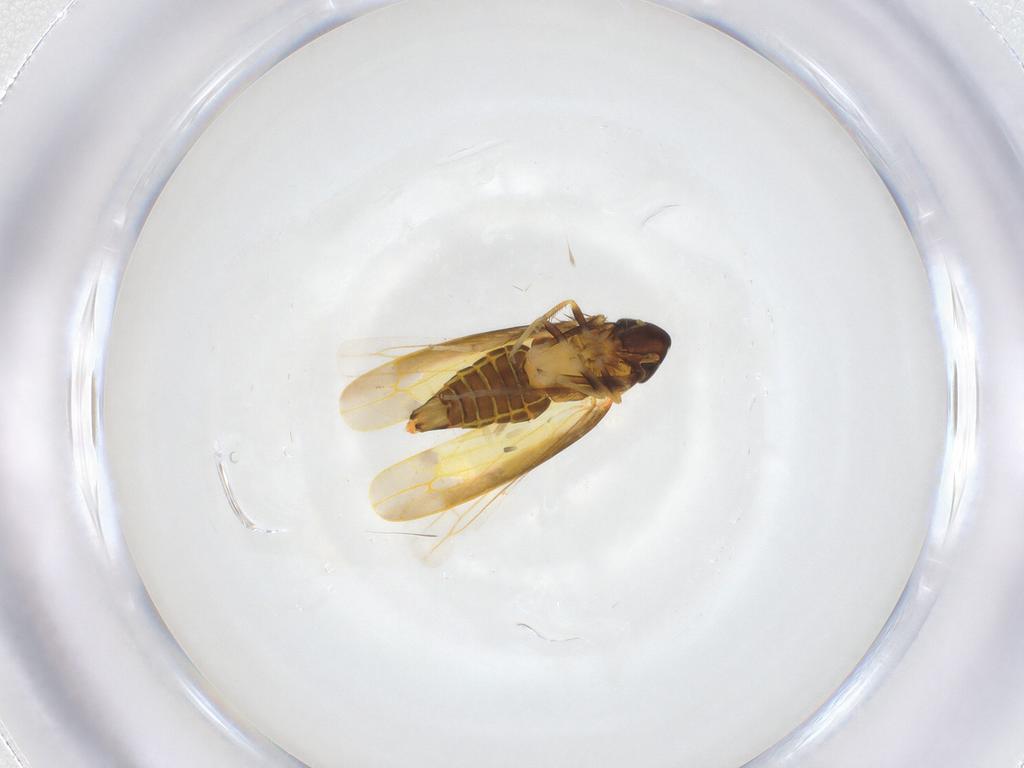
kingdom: Animalia
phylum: Arthropoda
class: Insecta
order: Hemiptera
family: Cicadellidae
